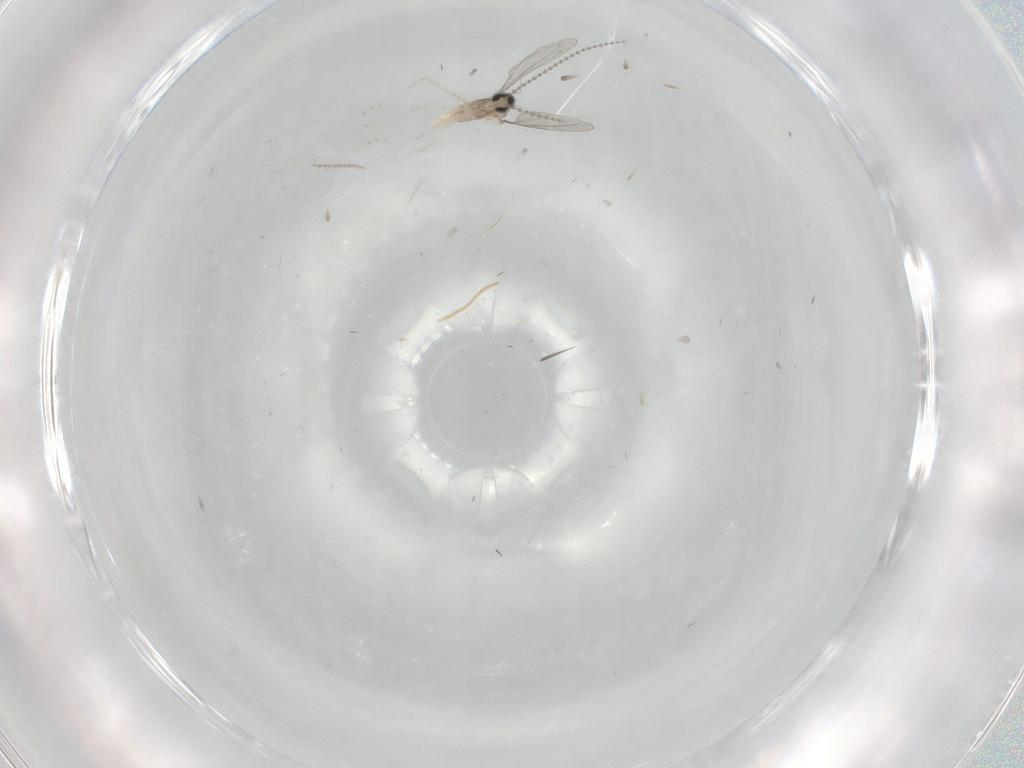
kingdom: Animalia
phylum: Arthropoda
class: Insecta
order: Diptera
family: Cecidomyiidae
